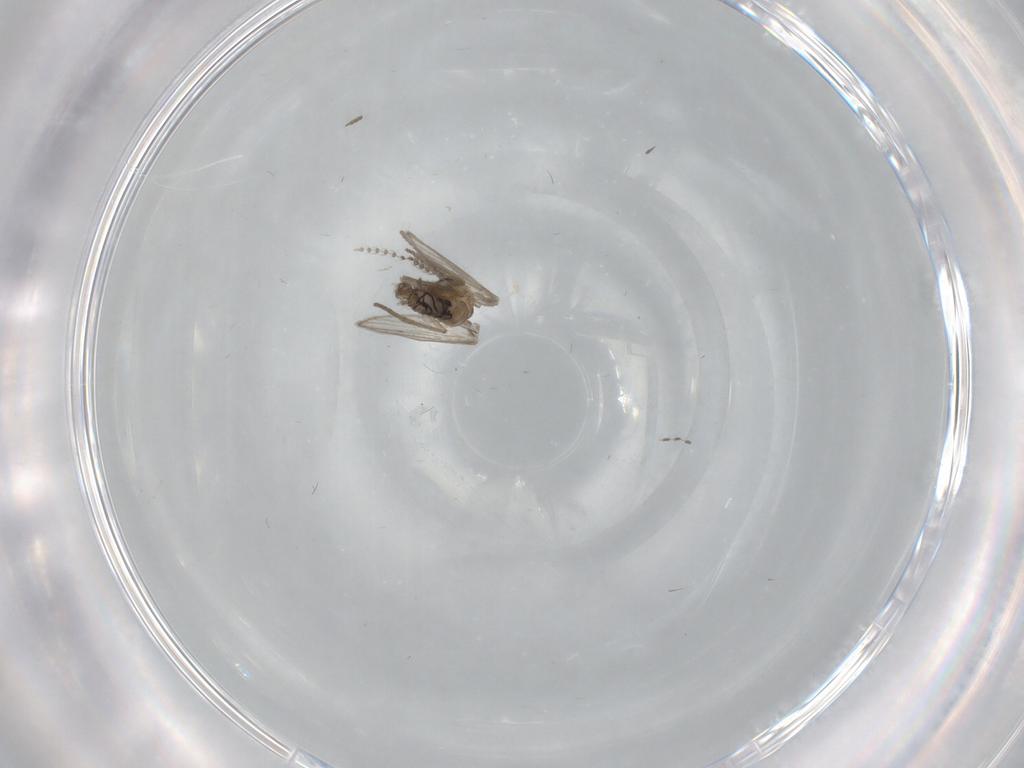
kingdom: Animalia
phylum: Arthropoda
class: Insecta
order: Diptera
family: Psychodidae
